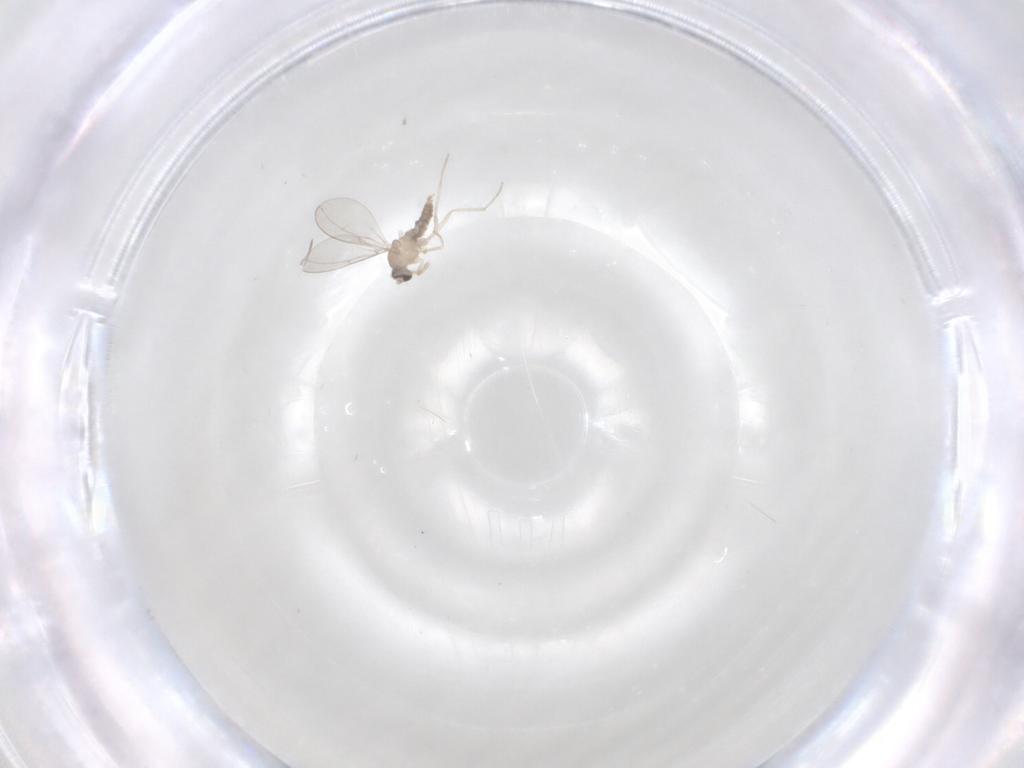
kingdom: Animalia
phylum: Arthropoda
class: Insecta
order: Diptera
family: Dolichopodidae
